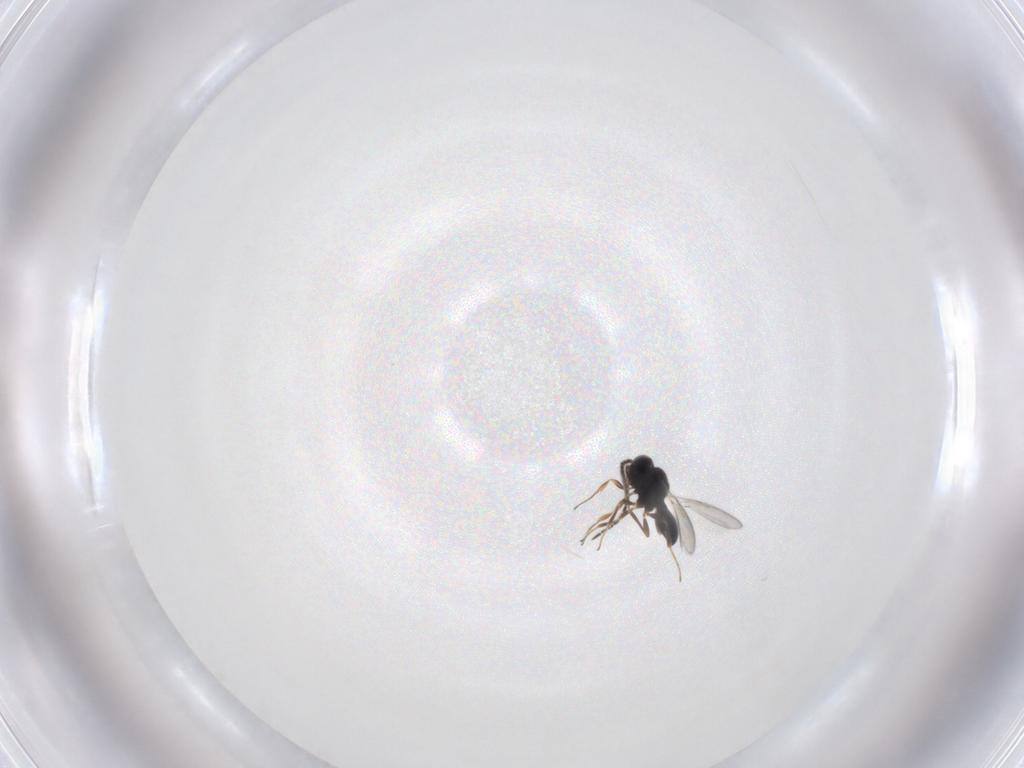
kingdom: Animalia
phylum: Arthropoda
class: Insecta
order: Hymenoptera
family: Scelionidae
